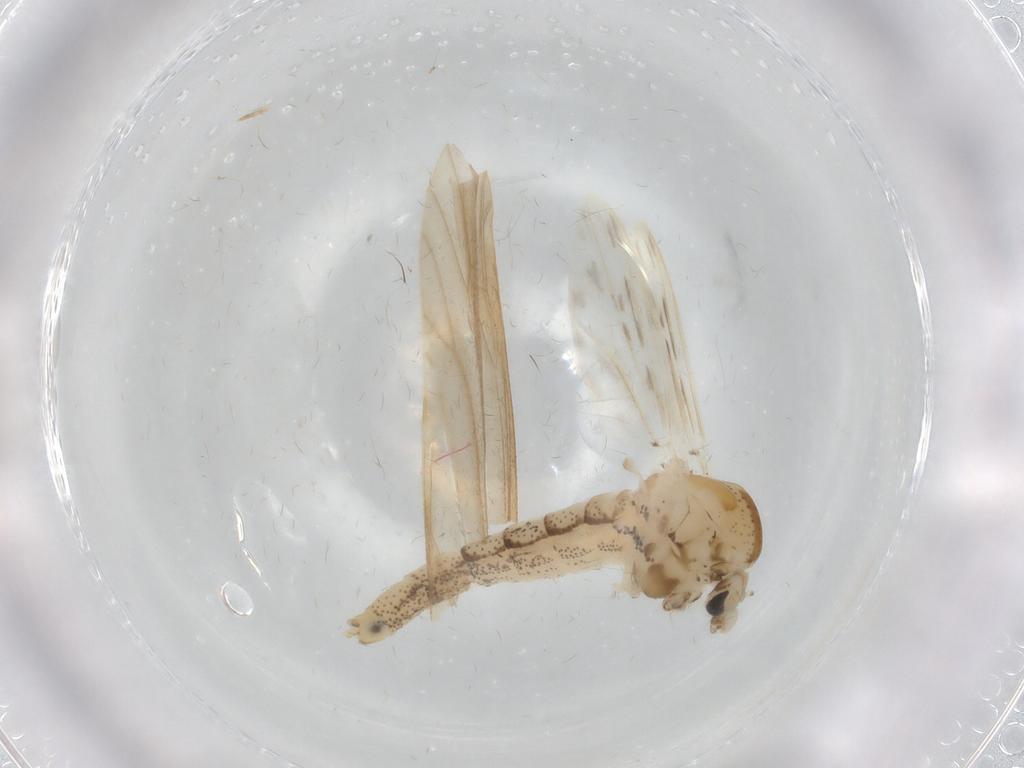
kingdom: Animalia
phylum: Arthropoda
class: Insecta
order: Diptera
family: Chaoboridae
